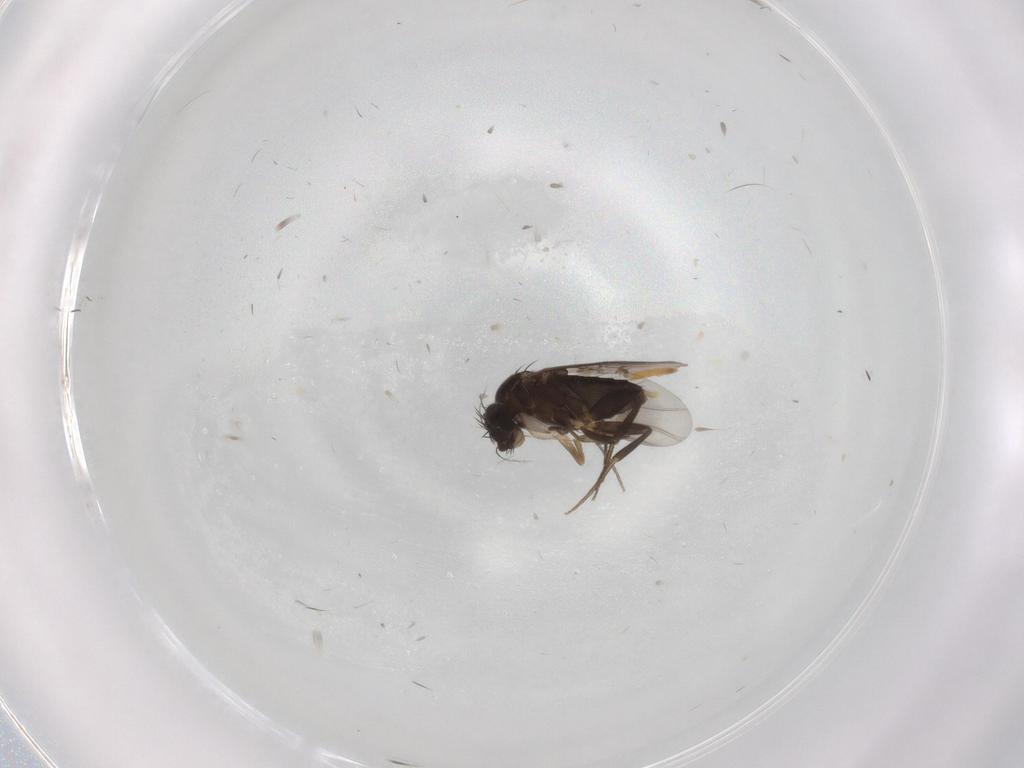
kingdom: Animalia
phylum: Arthropoda
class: Insecta
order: Diptera
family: Phoridae
